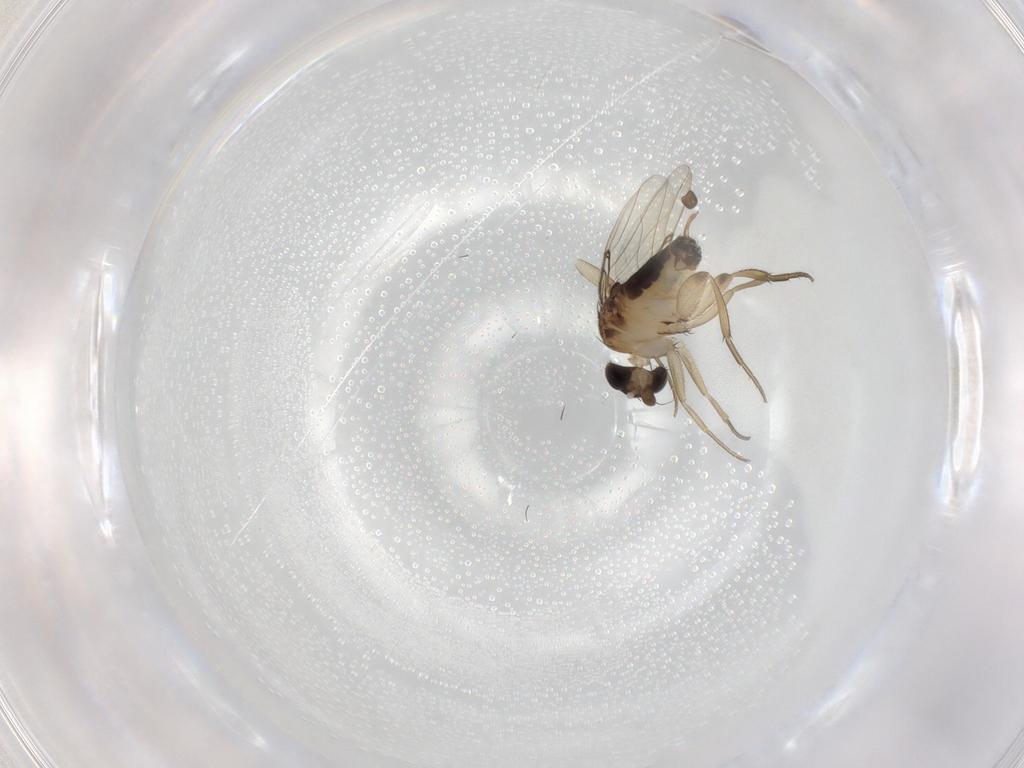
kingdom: Animalia
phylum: Arthropoda
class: Insecta
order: Diptera
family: Phoridae
